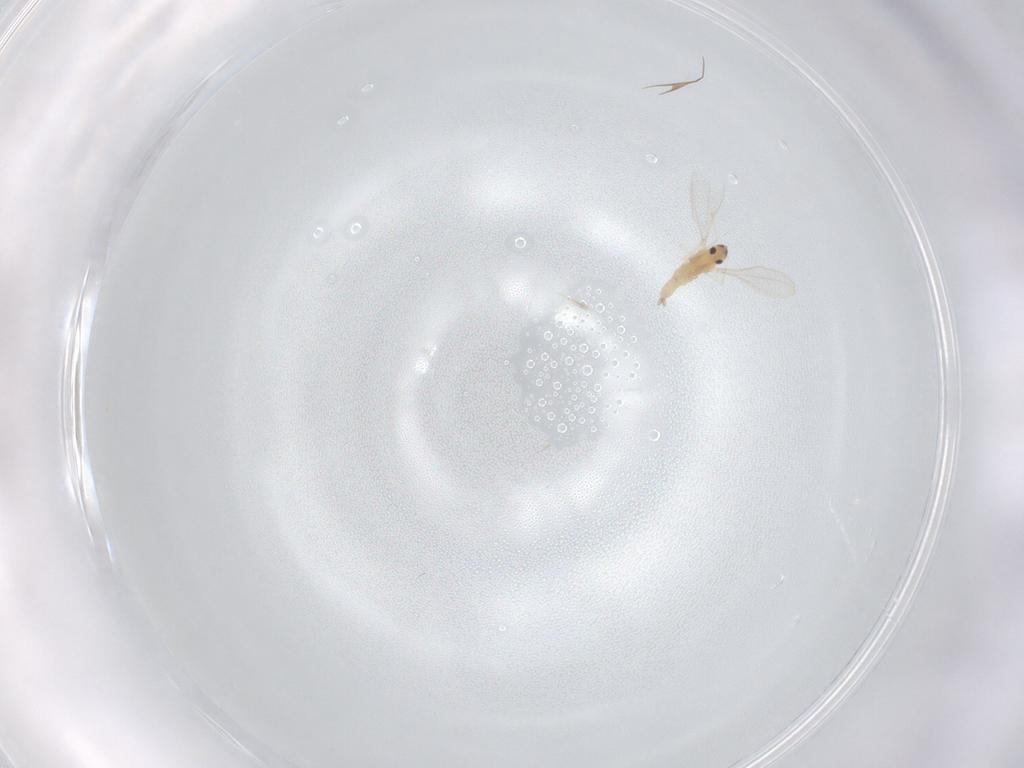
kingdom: Animalia
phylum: Arthropoda
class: Insecta
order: Diptera
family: Cecidomyiidae
